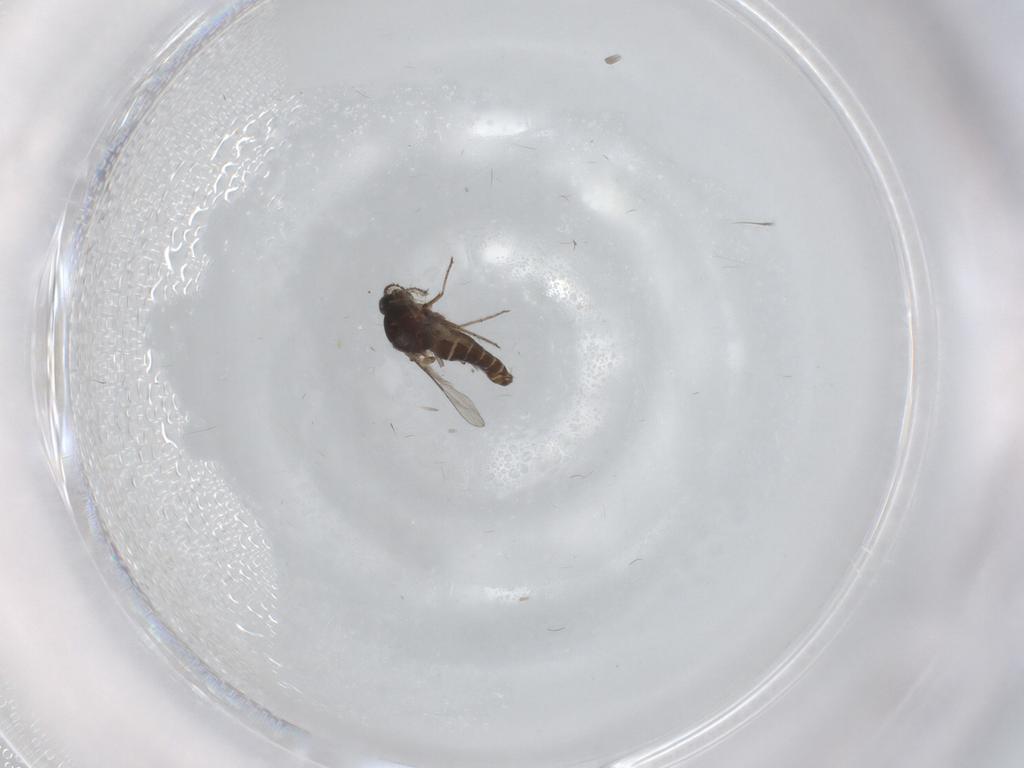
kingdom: Animalia
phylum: Arthropoda
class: Insecta
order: Diptera
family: Ceratopogonidae
